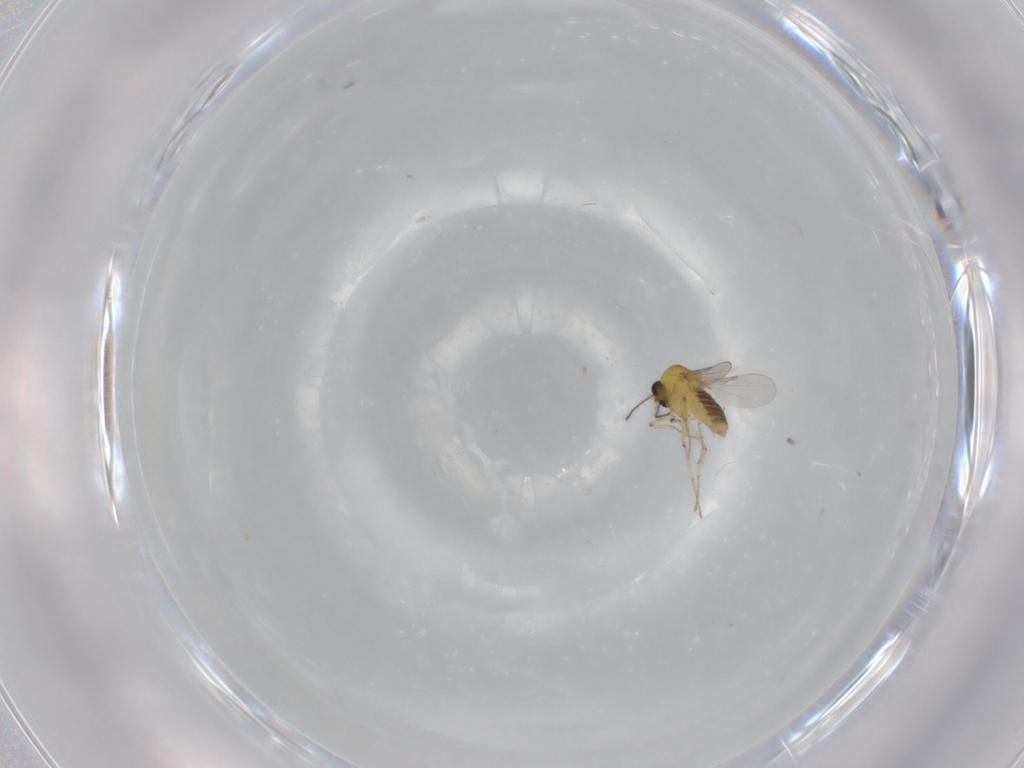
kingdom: Animalia
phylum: Arthropoda
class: Insecta
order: Diptera
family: Ceratopogonidae
